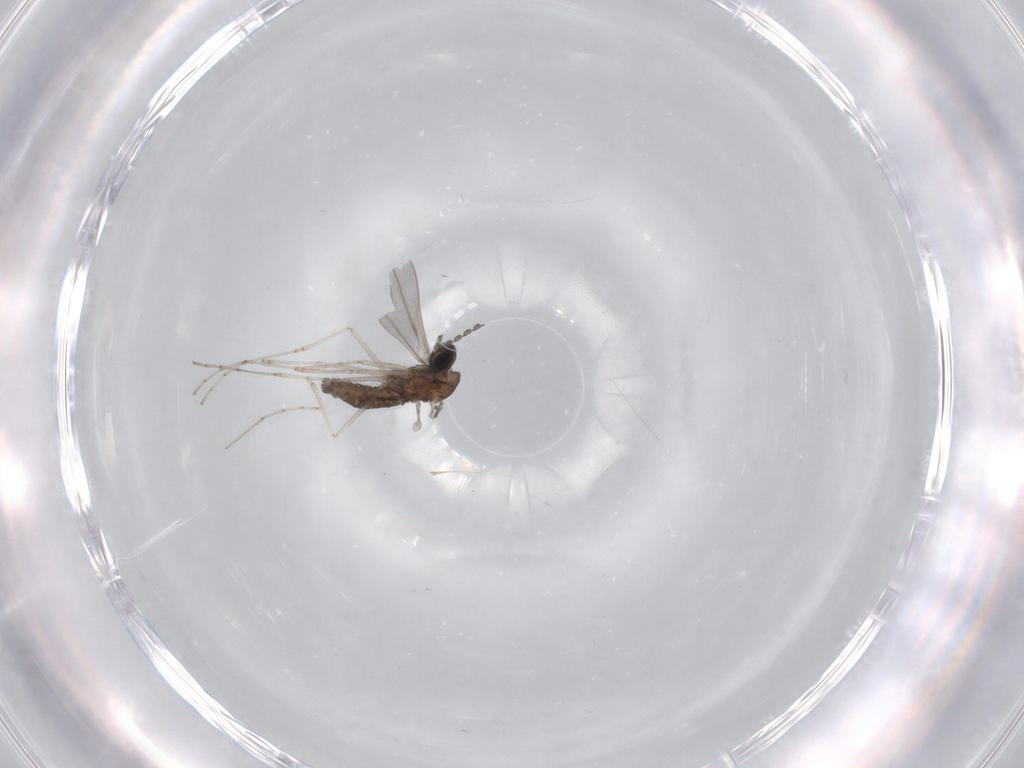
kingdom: Animalia
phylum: Arthropoda
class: Insecta
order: Diptera
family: Cecidomyiidae
